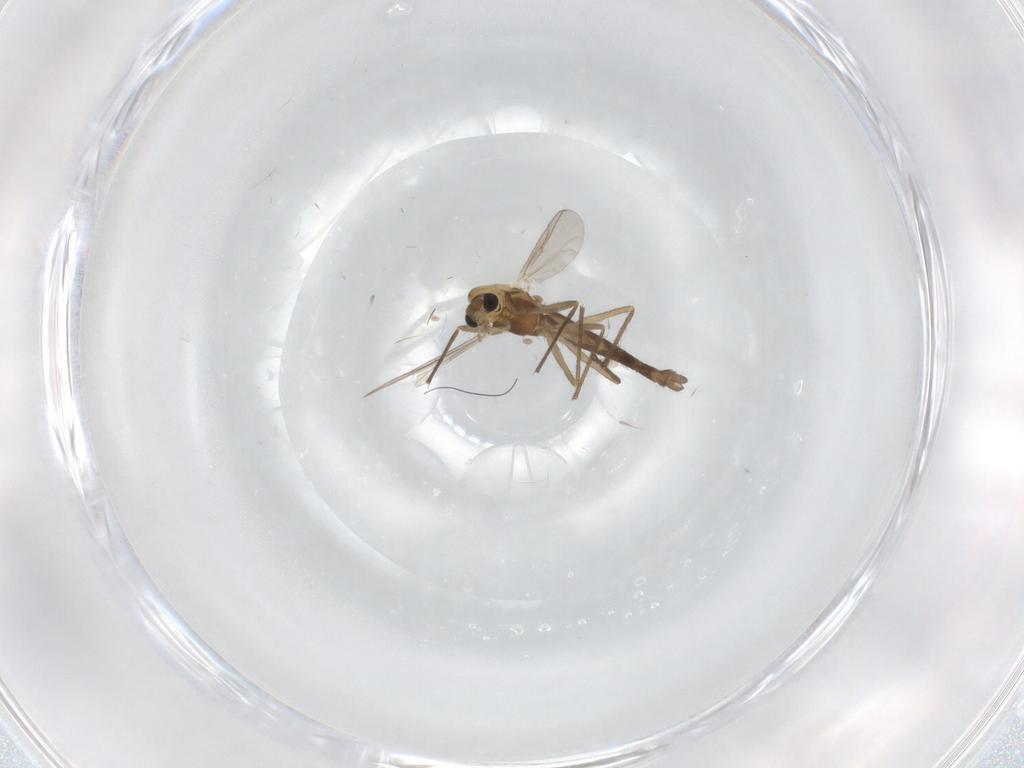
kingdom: Animalia
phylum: Arthropoda
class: Insecta
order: Diptera
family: Chironomidae
